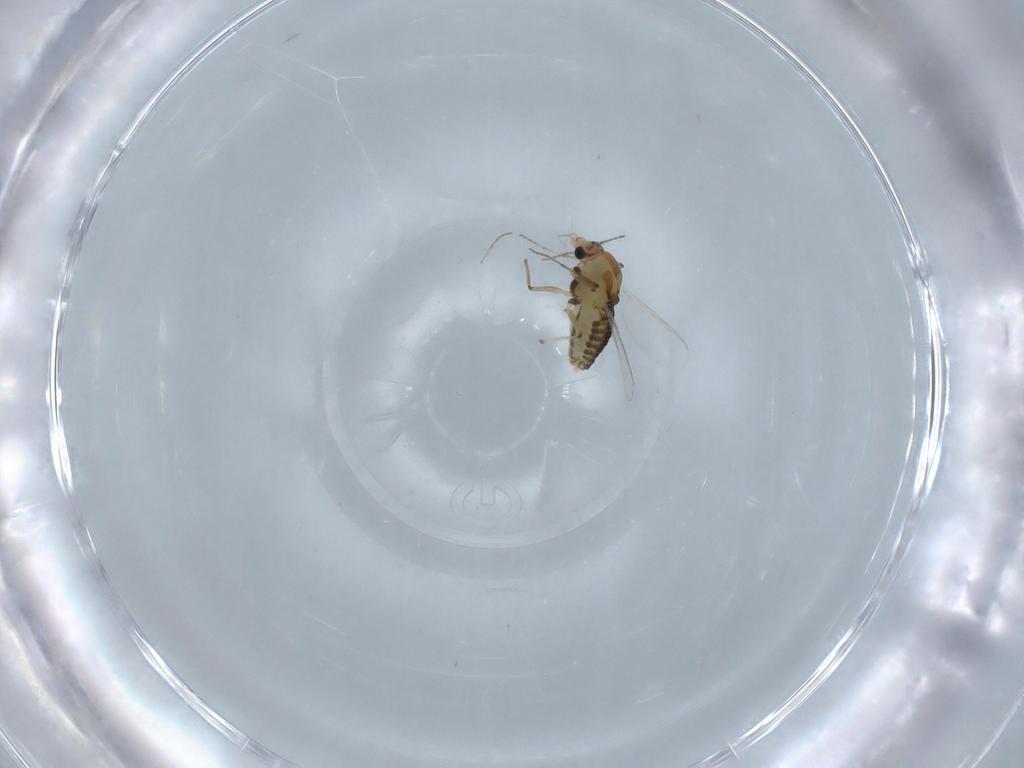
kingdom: Animalia
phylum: Arthropoda
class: Insecta
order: Diptera
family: Chironomidae
